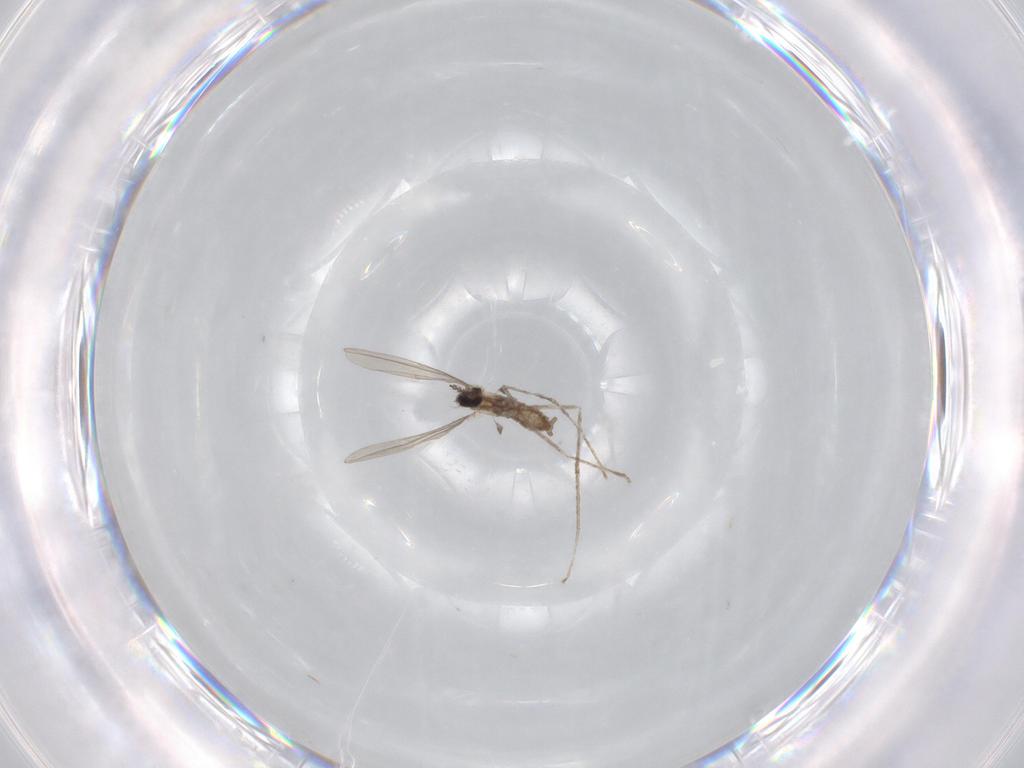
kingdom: Animalia
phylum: Arthropoda
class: Insecta
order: Diptera
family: Cecidomyiidae
